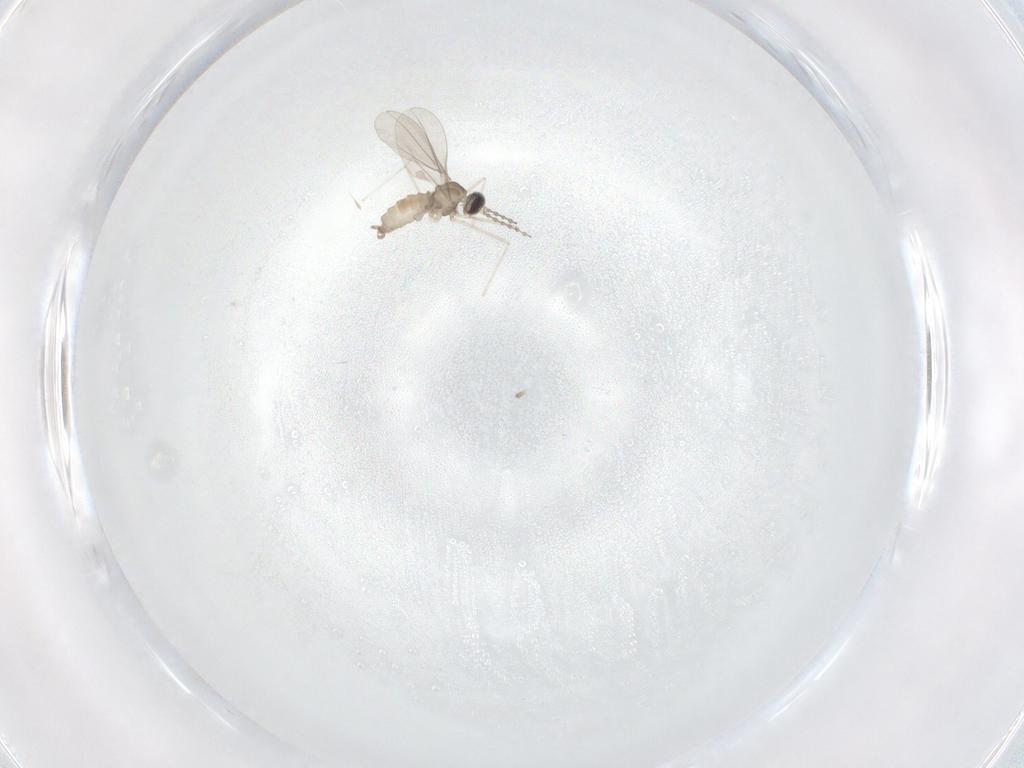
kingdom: Animalia
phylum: Arthropoda
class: Insecta
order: Diptera
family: Cecidomyiidae
